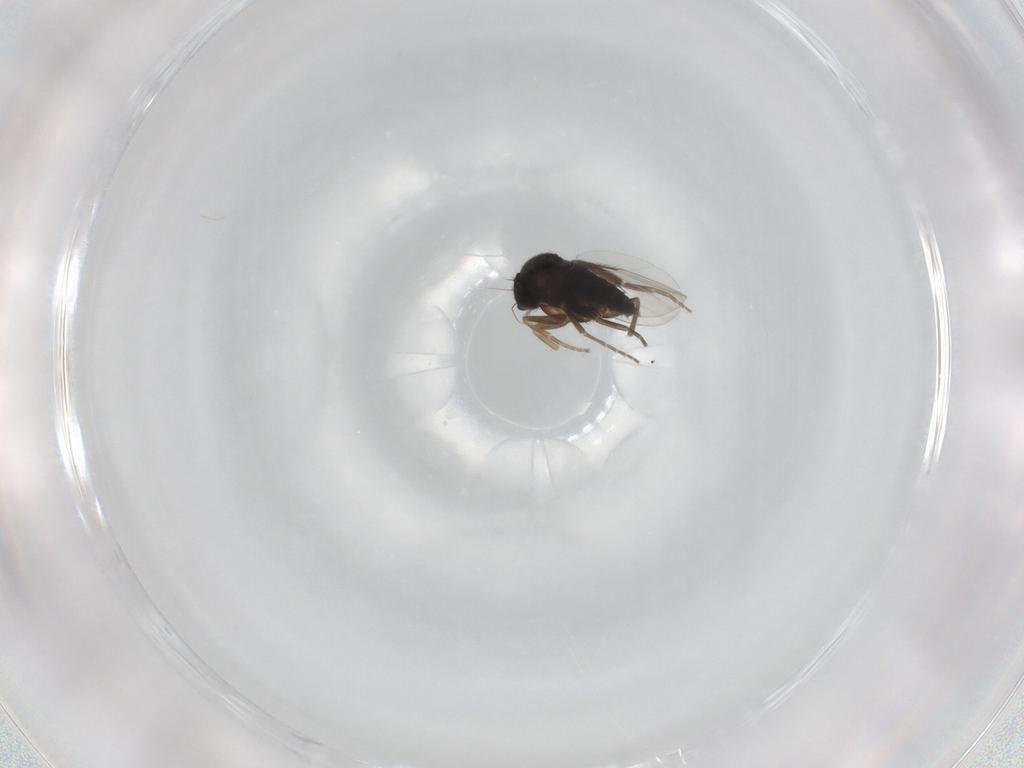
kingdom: Animalia
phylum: Arthropoda
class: Insecta
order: Diptera
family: Phoridae
